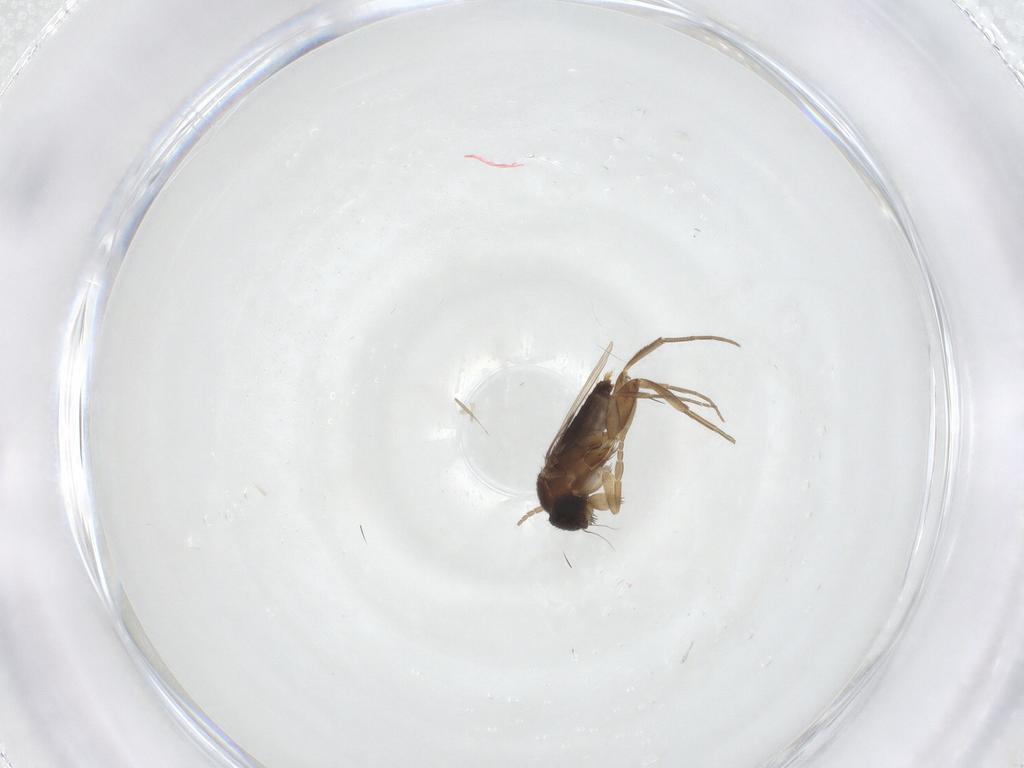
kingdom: Animalia
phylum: Arthropoda
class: Insecta
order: Diptera
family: Phoridae
